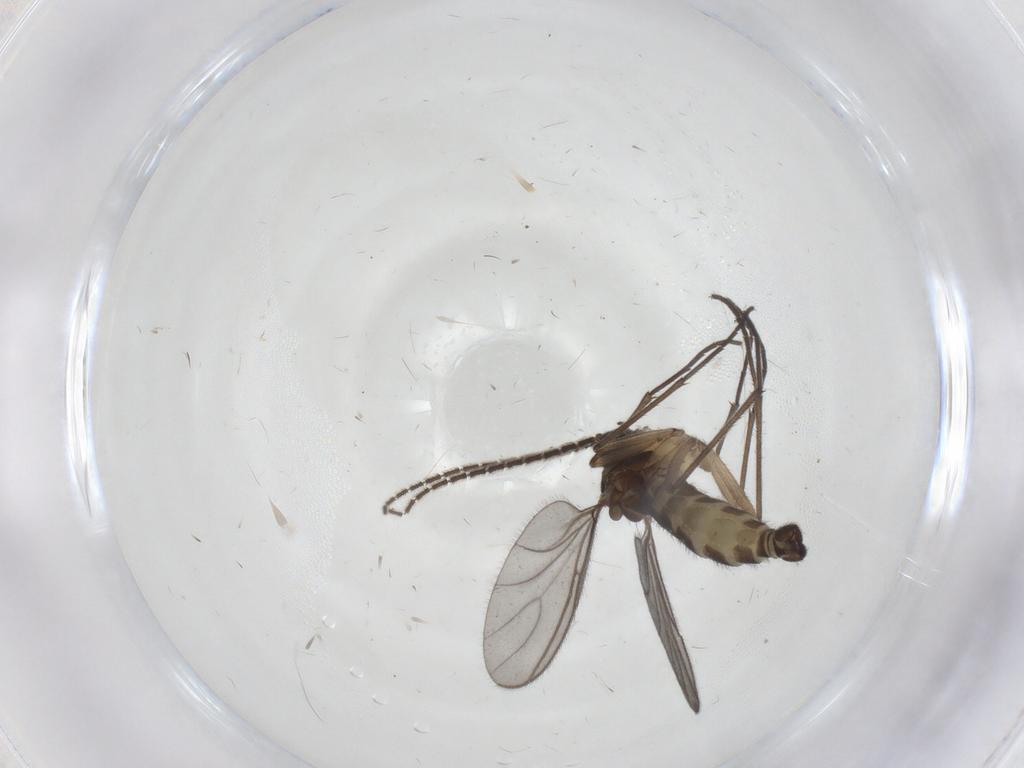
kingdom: Animalia
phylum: Arthropoda
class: Insecta
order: Diptera
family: Sciaridae
